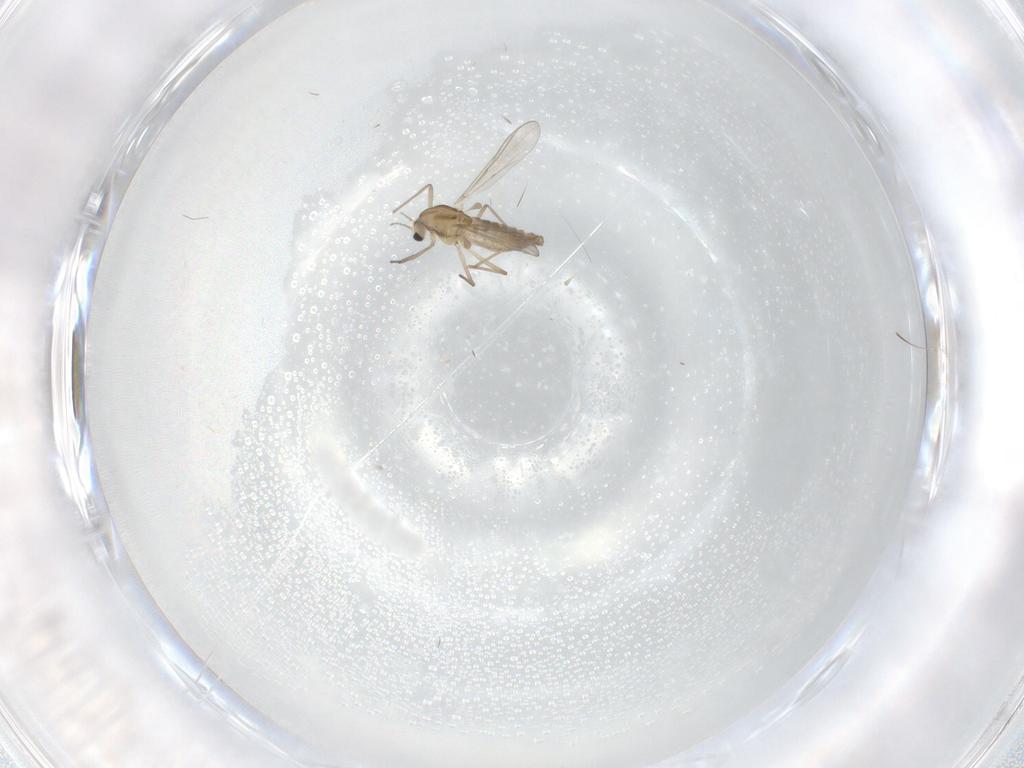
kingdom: Animalia
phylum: Arthropoda
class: Insecta
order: Diptera
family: Chironomidae
